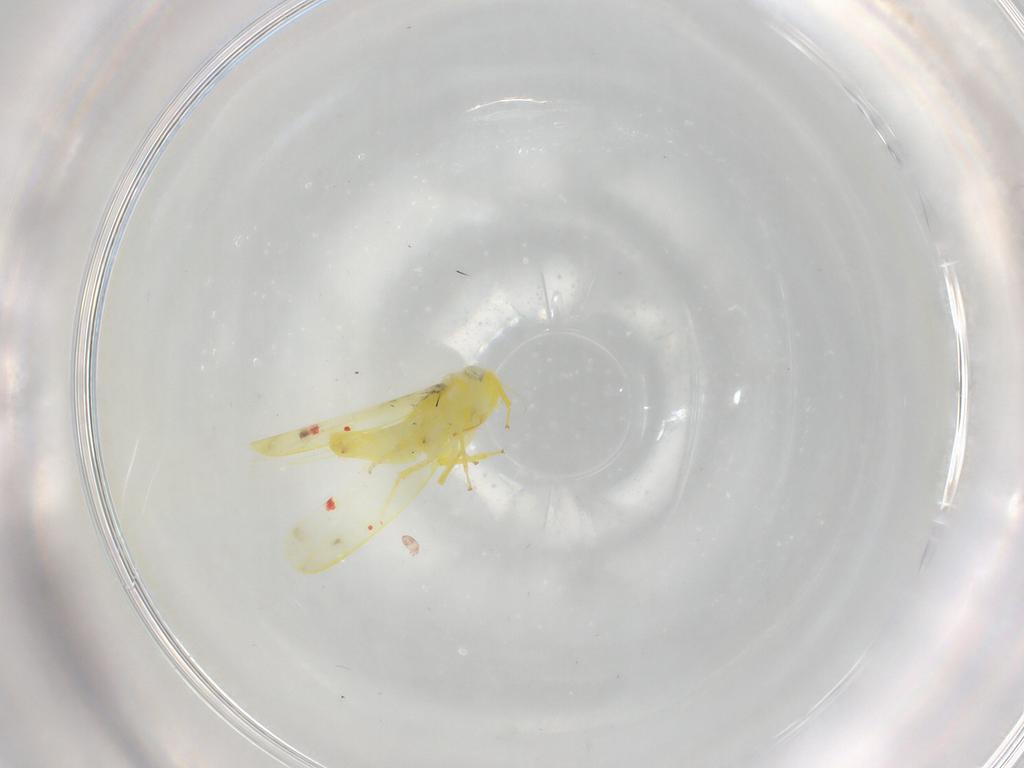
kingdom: Animalia
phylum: Arthropoda
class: Insecta
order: Hemiptera
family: Cicadellidae
